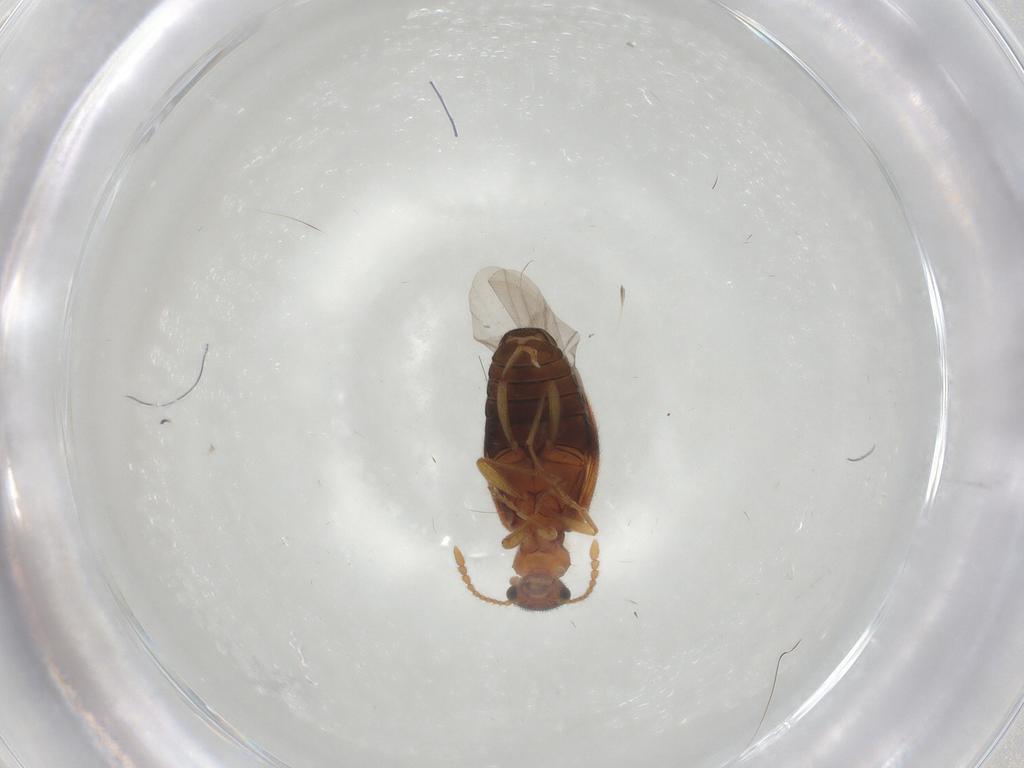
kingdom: Animalia
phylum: Arthropoda
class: Insecta
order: Coleoptera
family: Anthicidae
